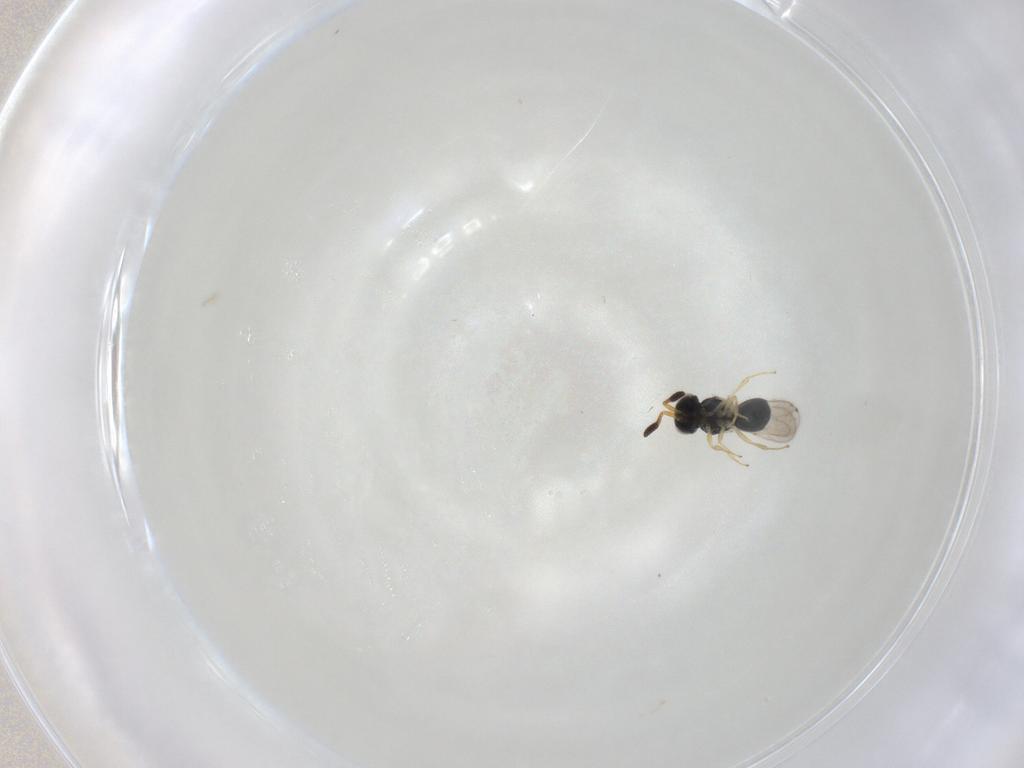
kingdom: Animalia
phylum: Arthropoda
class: Insecta
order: Hymenoptera
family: Scelionidae
